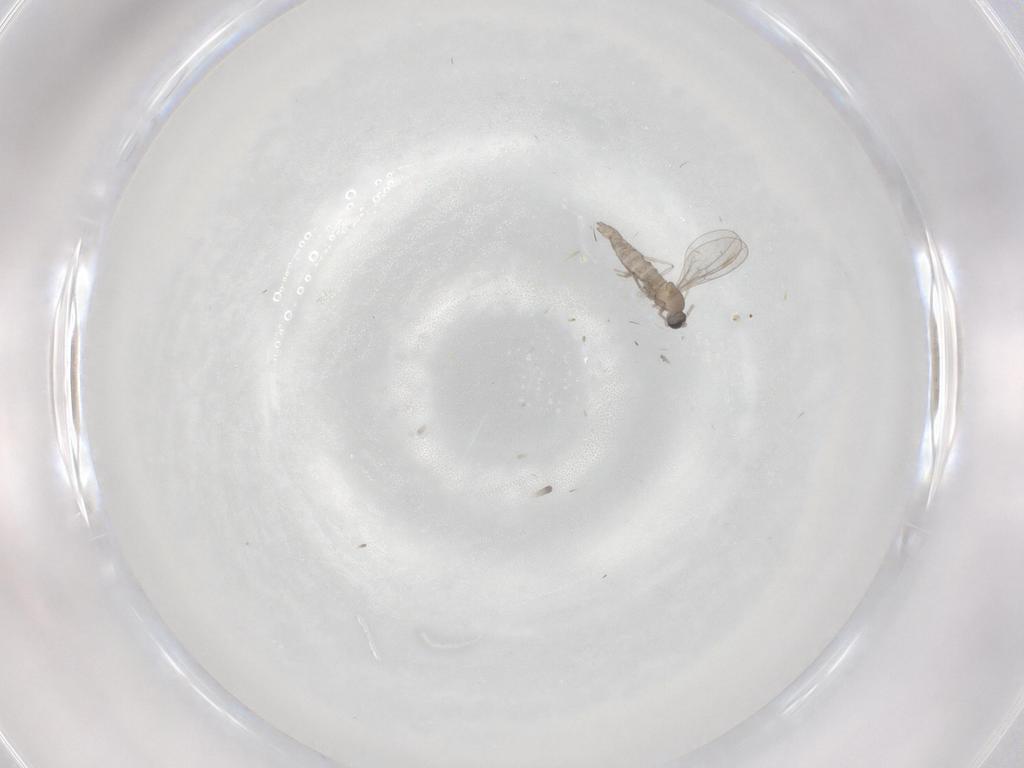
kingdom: Animalia
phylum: Arthropoda
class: Insecta
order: Diptera
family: Cecidomyiidae
